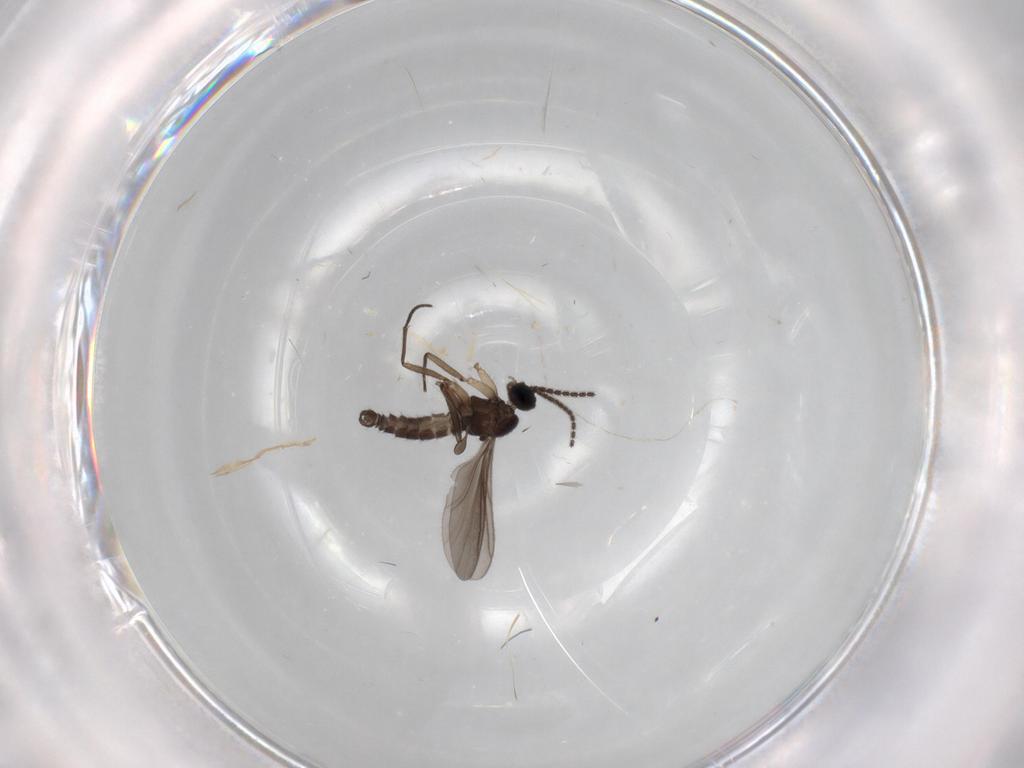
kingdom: Animalia
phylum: Arthropoda
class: Insecta
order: Diptera
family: Sciaridae
